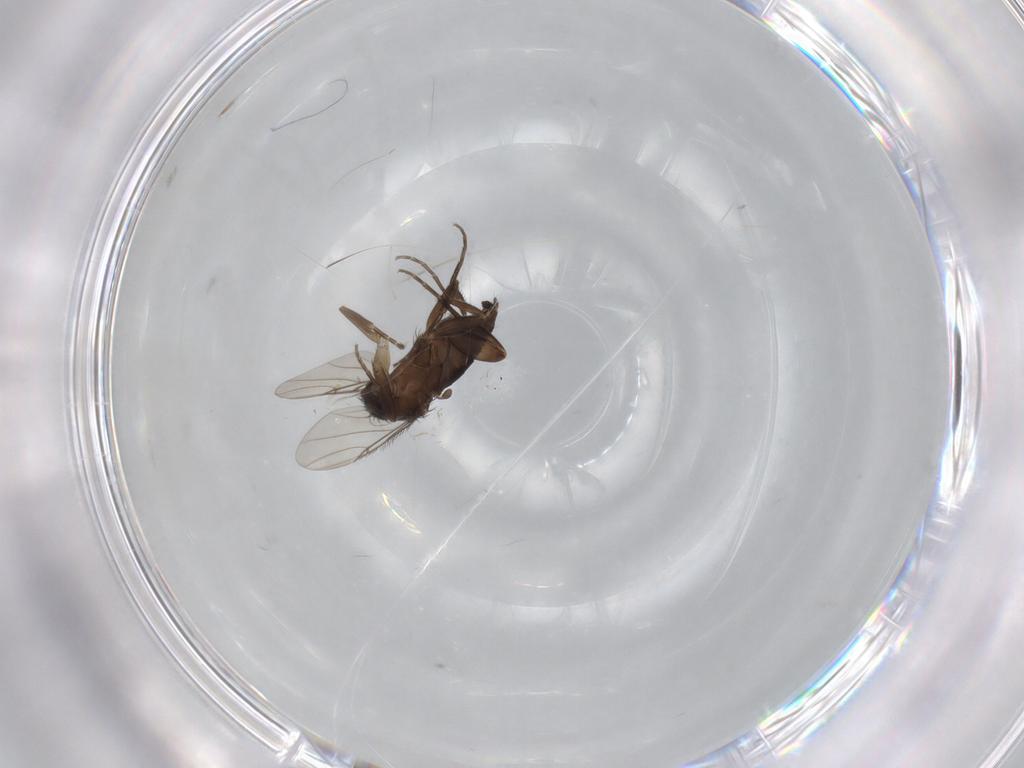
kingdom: Animalia
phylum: Arthropoda
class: Insecta
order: Diptera
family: Phoridae
